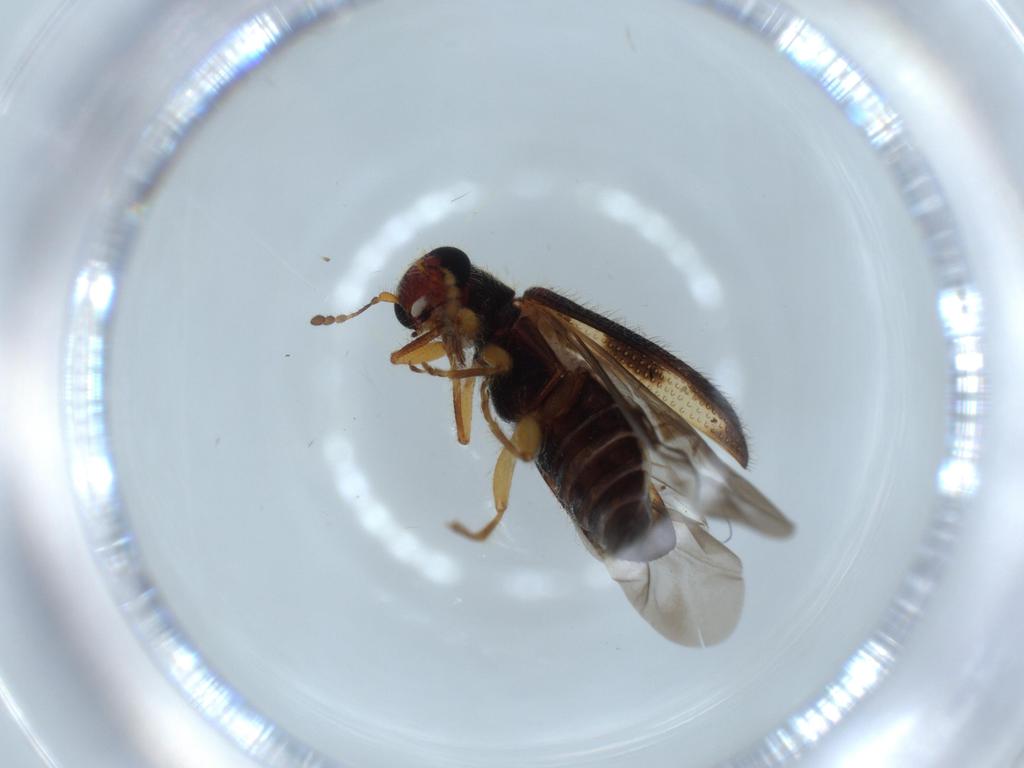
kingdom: Animalia
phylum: Arthropoda
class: Insecta
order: Coleoptera
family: Cleridae
